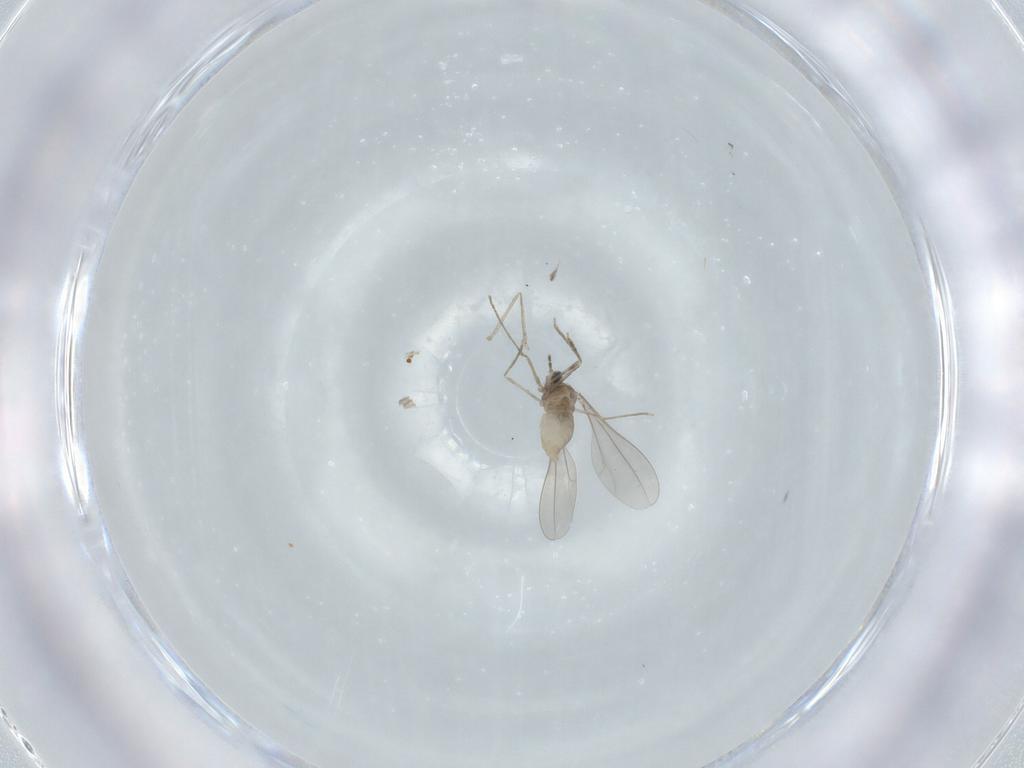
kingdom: Animalia
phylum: Arthropoda
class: Insecta
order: Diptera
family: Phoridae
